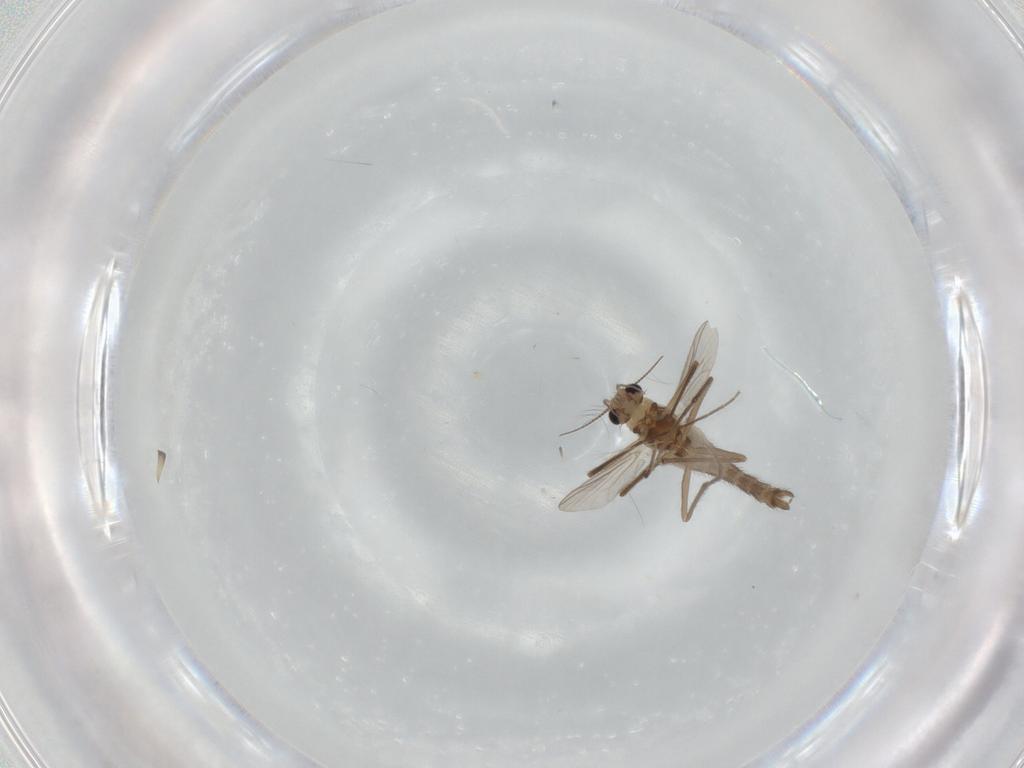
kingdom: Animalia
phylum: Arthropoda
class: Insecta
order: Diptera
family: Chironomidae
